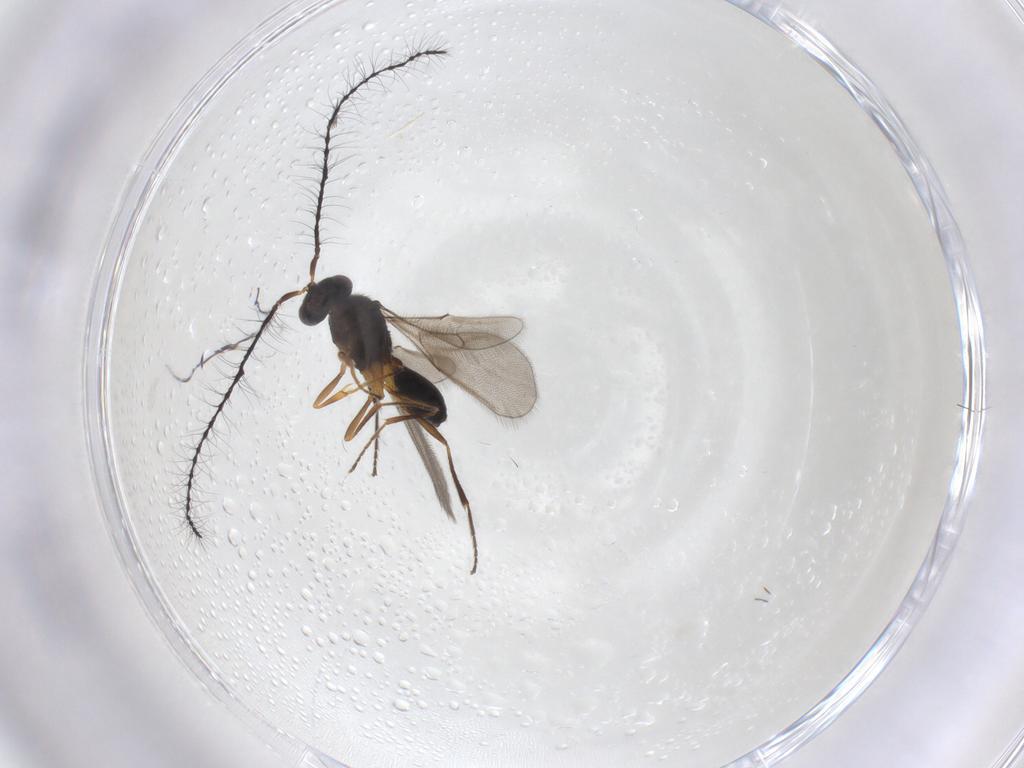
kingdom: Animalia
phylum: Arthropoda
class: Insecta
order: Hymenoptera
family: Scelionidae
